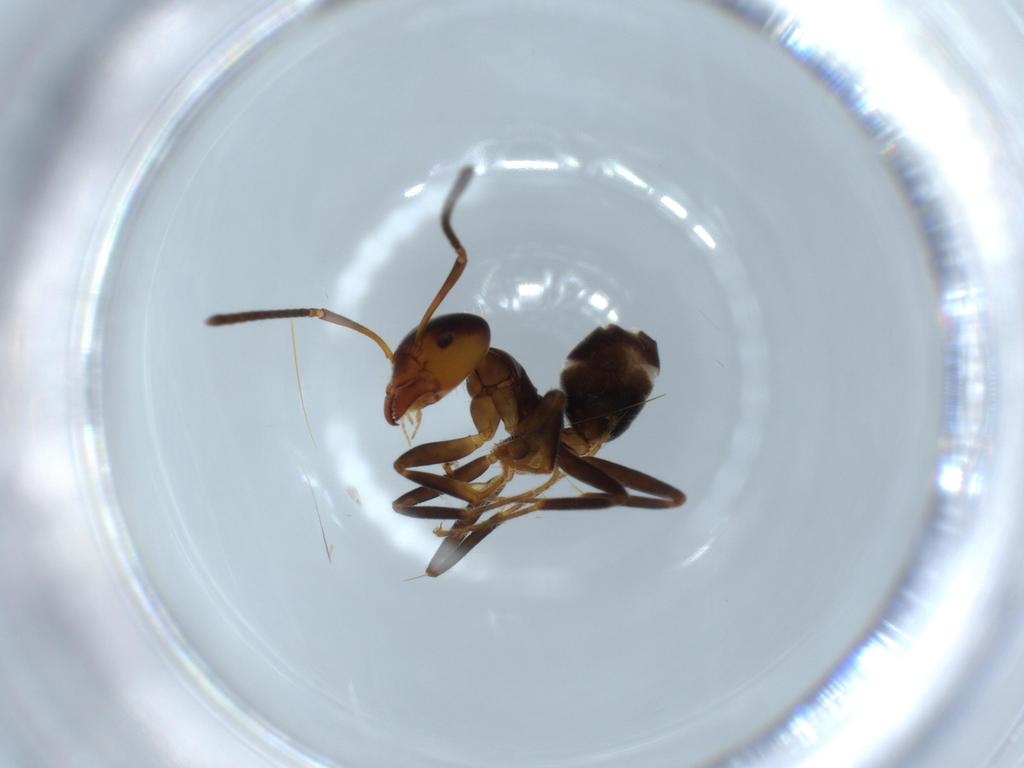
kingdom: Animalia
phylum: Arthropoda
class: Insecta
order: Hymenoptera
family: Formicidae
